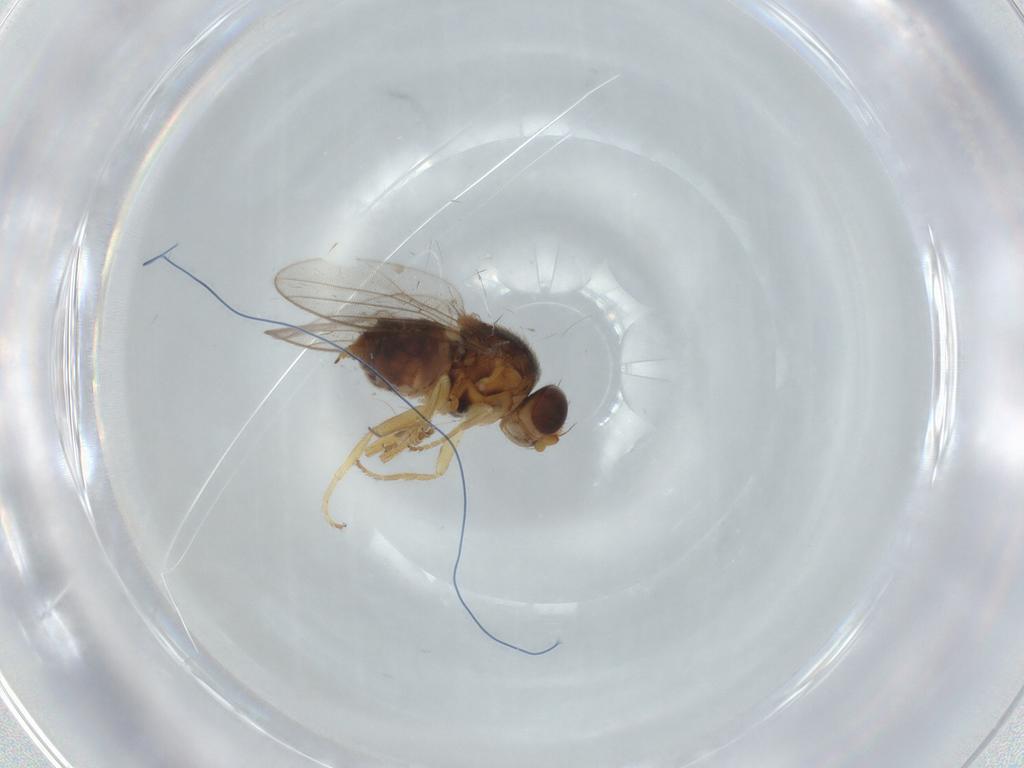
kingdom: Animalia
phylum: Arthropoda
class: Insecta
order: Diptera
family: Chloropidae
